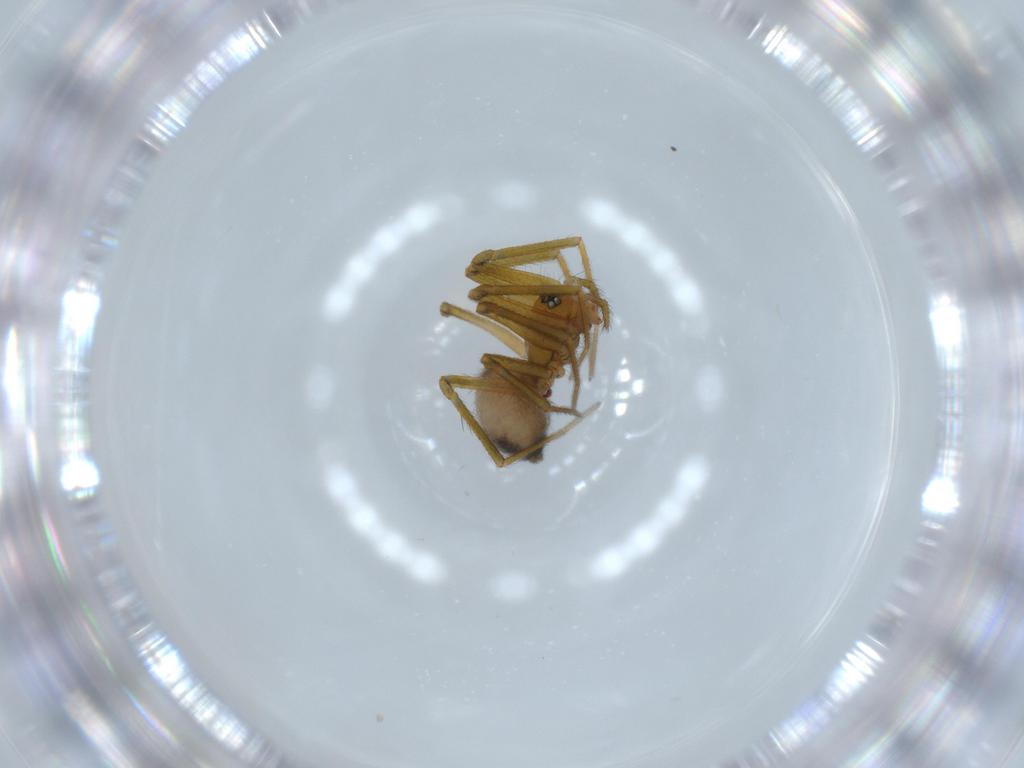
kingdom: Animalia
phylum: Arthropoda
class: Arachnida
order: Araneae
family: Linyphiidae
